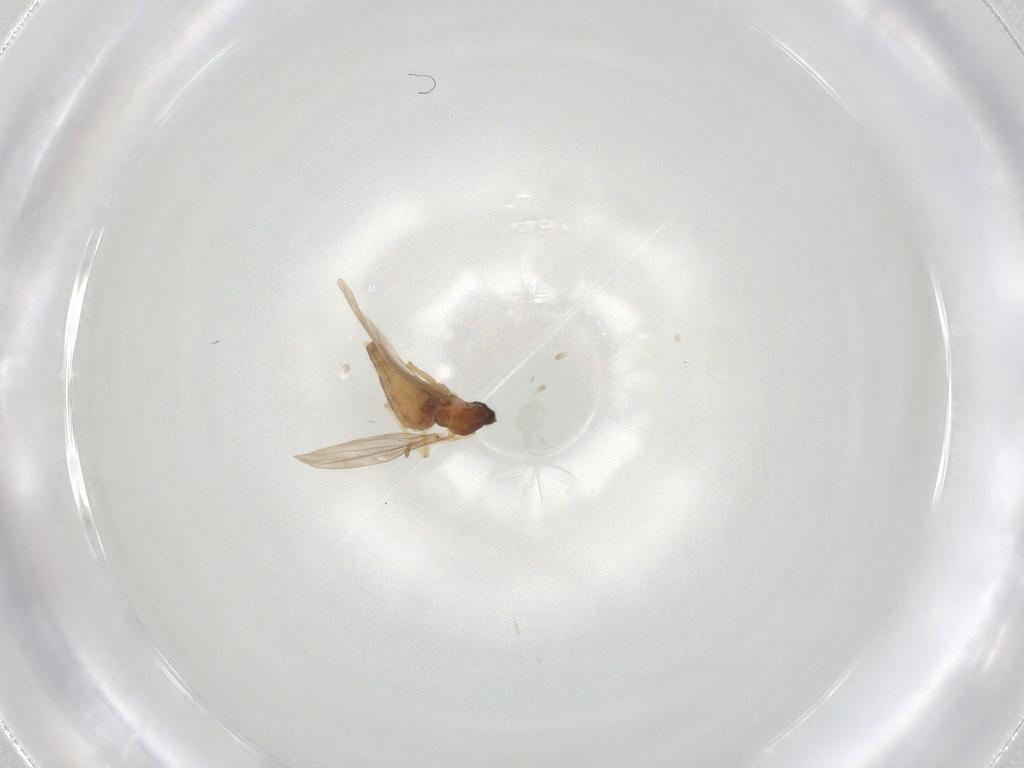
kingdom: Animalia
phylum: Arthropoda
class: Insecta
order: Diptera
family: Cecidomyiidae
